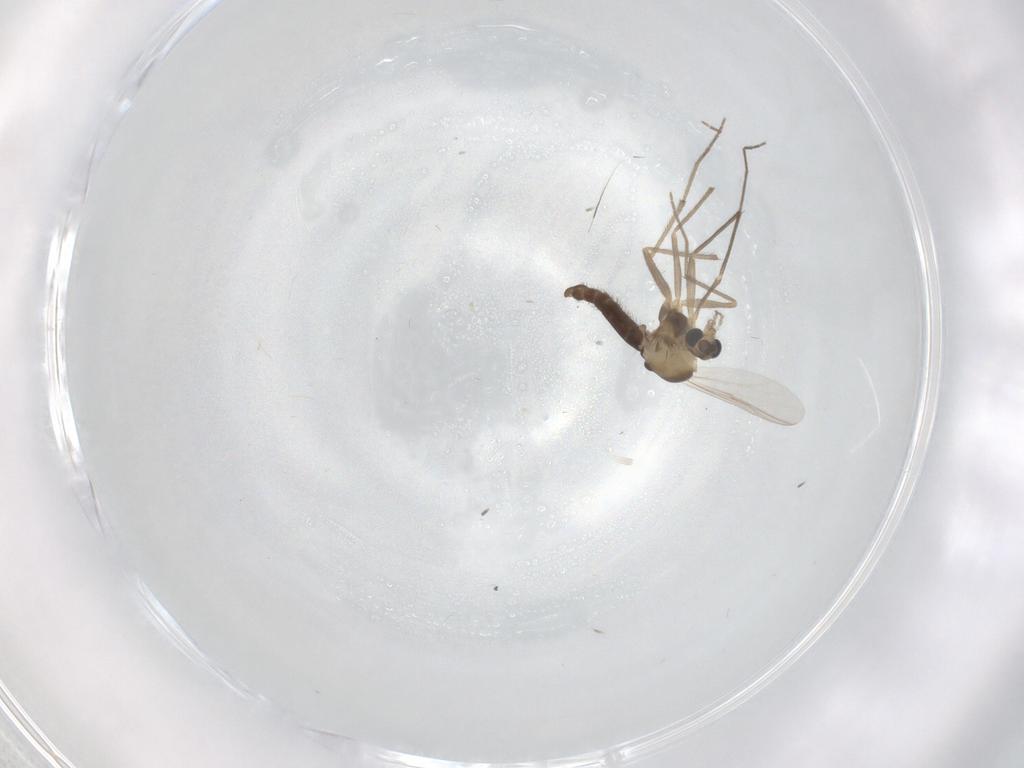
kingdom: Animalia
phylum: Arthropoda
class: Insecta
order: Diptera
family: Chironomidae
